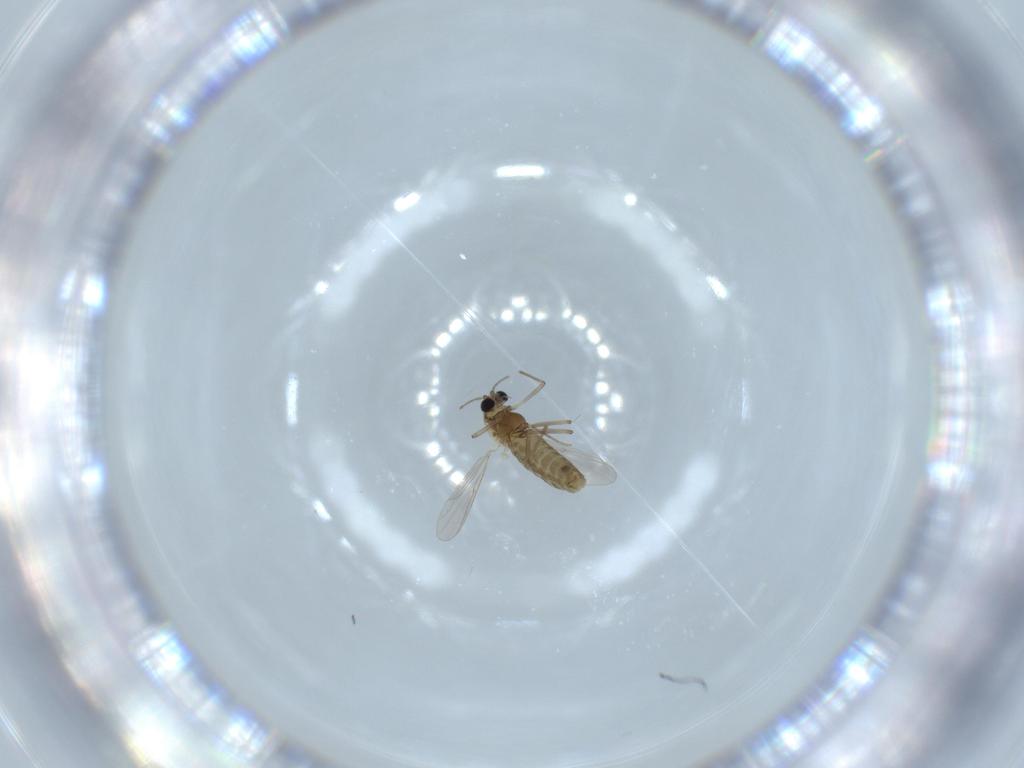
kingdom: Animalia
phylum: Arthropoda
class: Insecta
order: Diptera
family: Chironomidae
